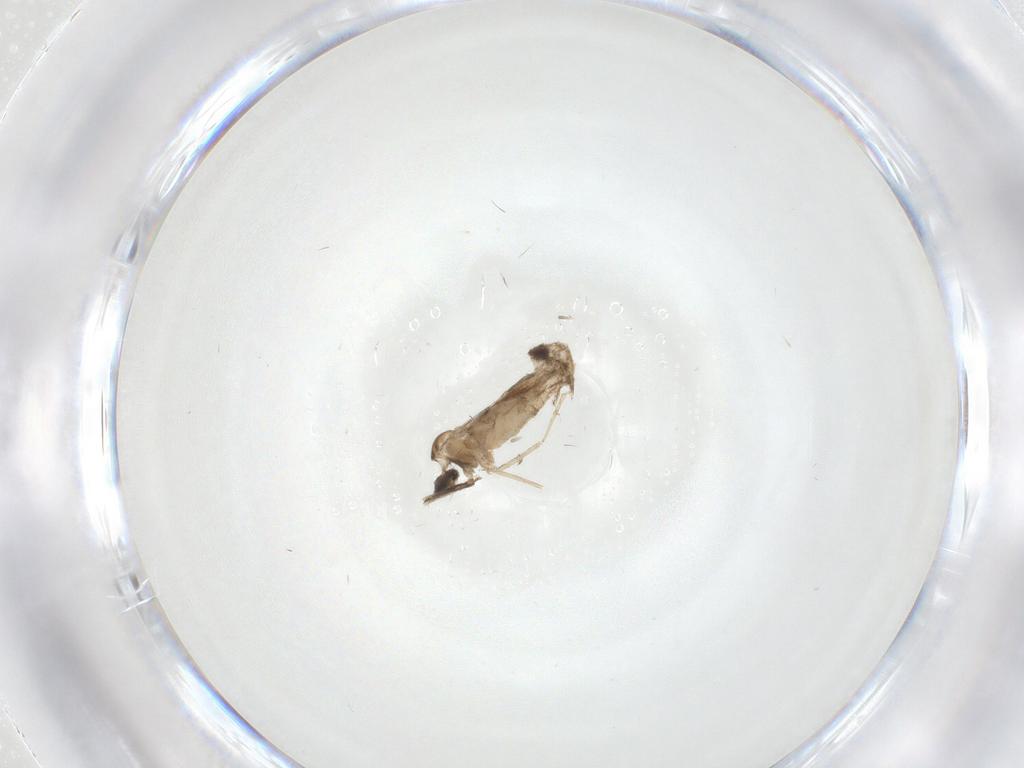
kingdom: Animalia
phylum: Arthropoda
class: Insecta
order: Diptera
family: Cecidomyiidae
